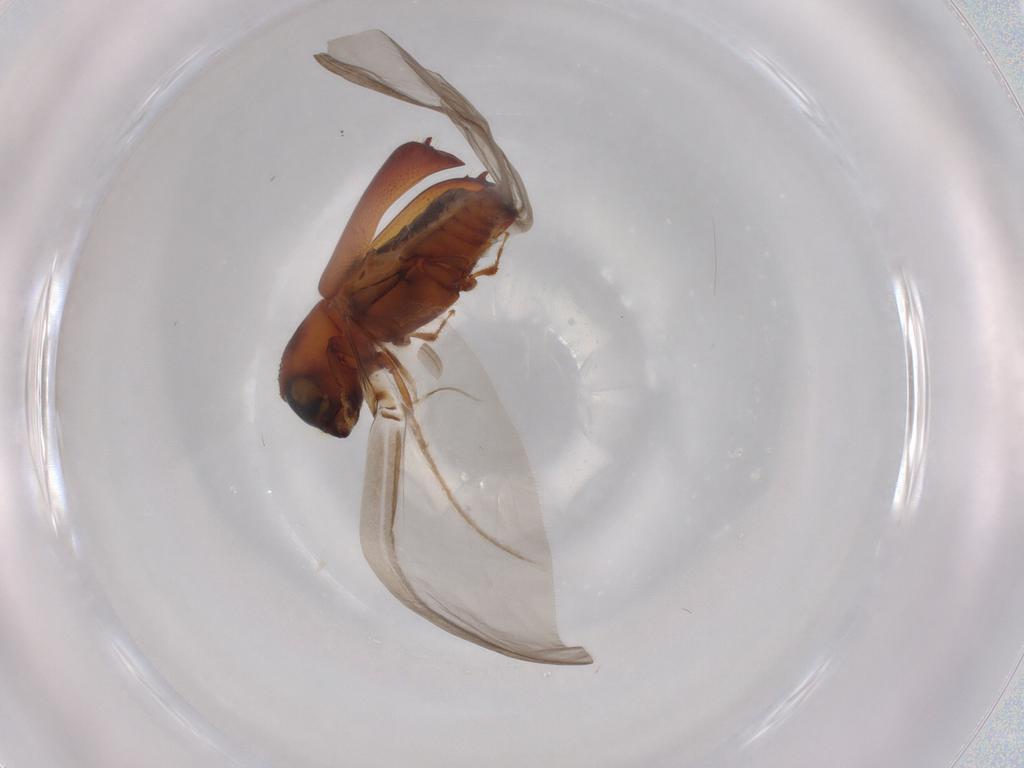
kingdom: Animalia
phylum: Arthropoda
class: Insecta
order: Coleoptera
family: Curculionidae
